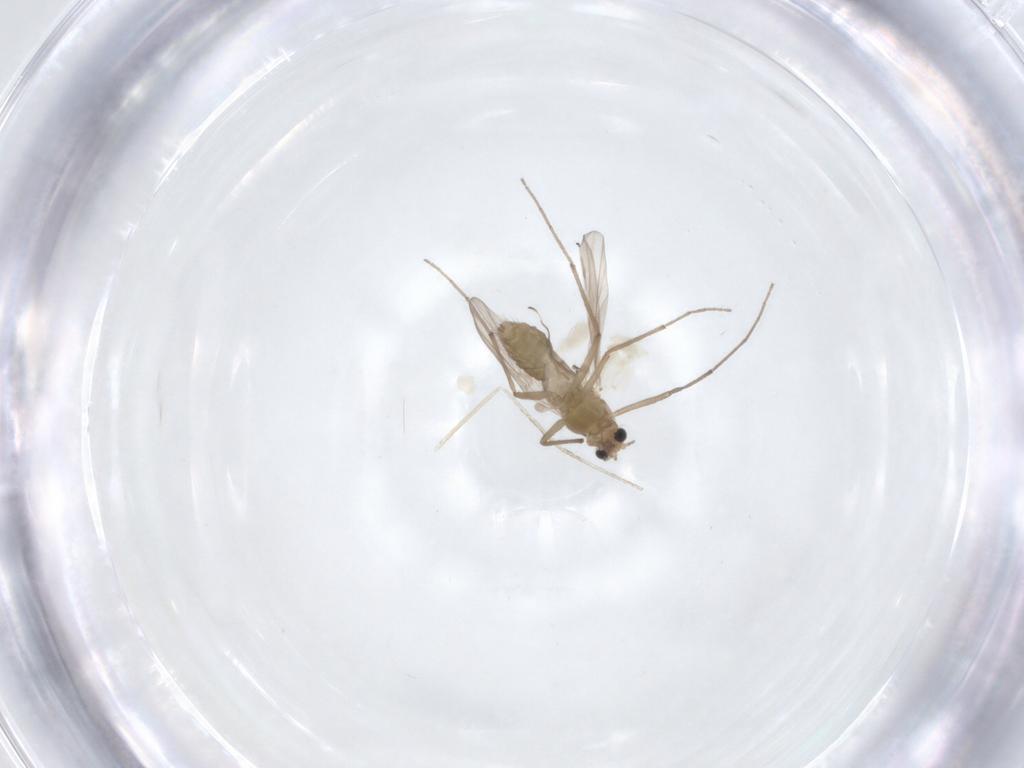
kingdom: Animalia
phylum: Arthropoda
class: Insecta
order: Diptera
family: Chironomidae
